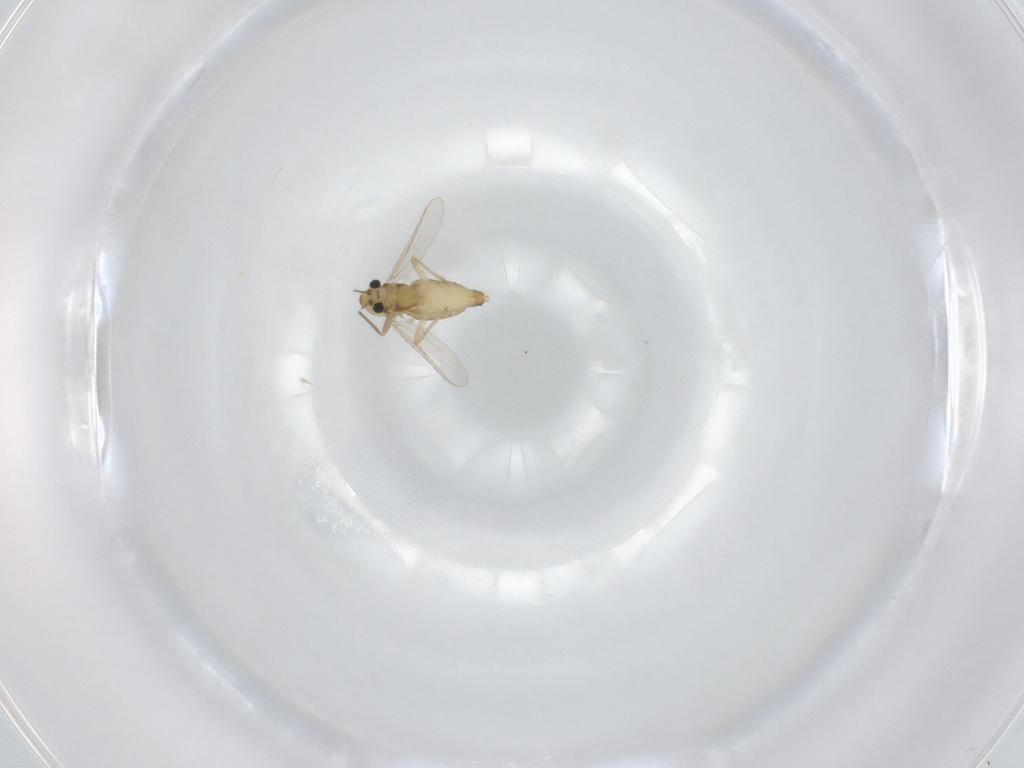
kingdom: Animalia
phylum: Arthropoda
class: Insecta
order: Diptera
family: Chironomidae
